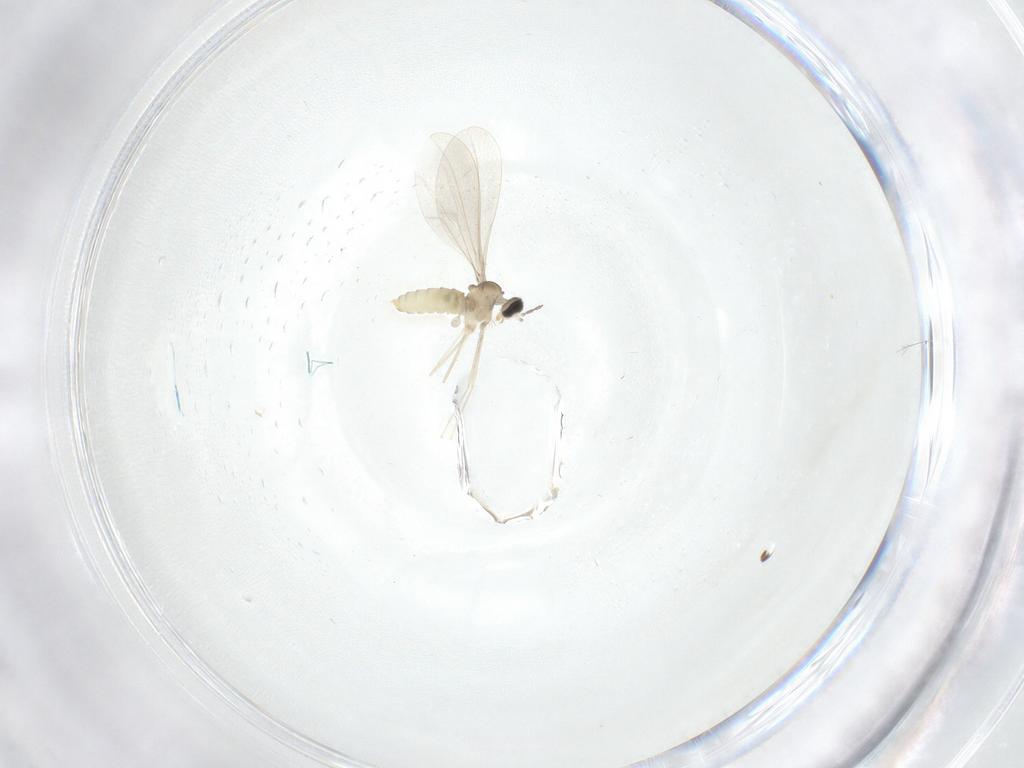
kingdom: Animalia
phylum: Arthropoda
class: Insecta
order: Diptera
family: Cecidomyiidae
